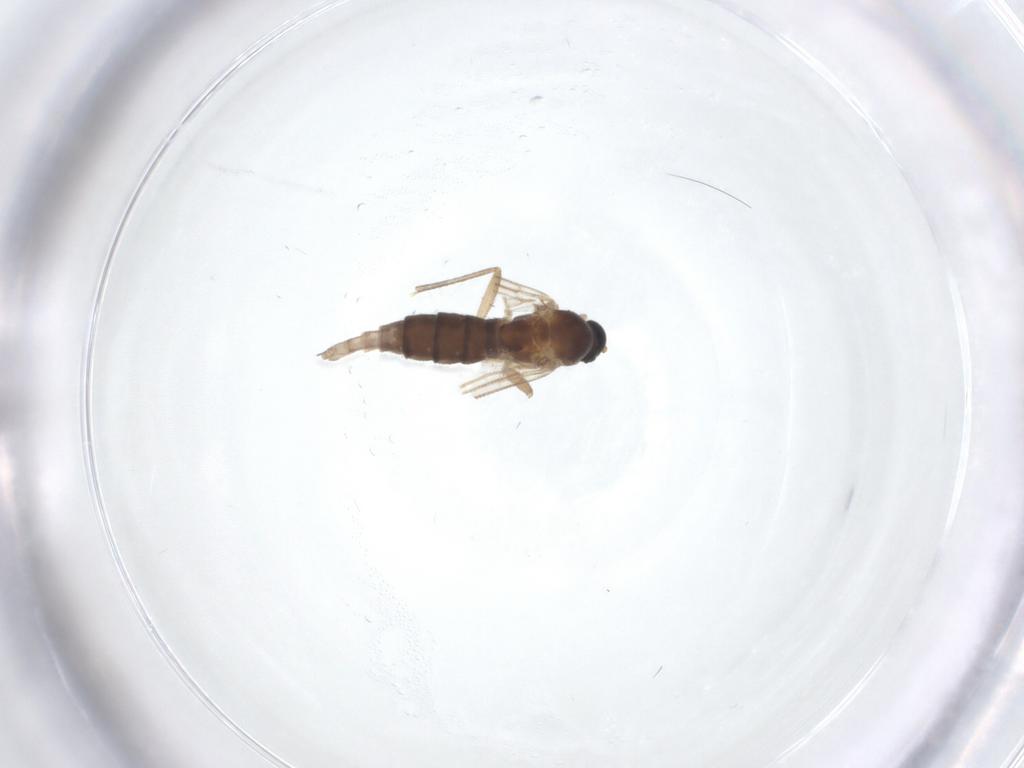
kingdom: Animalia
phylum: Arthropoda
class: Insecta
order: Diptera
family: Sciaridae
